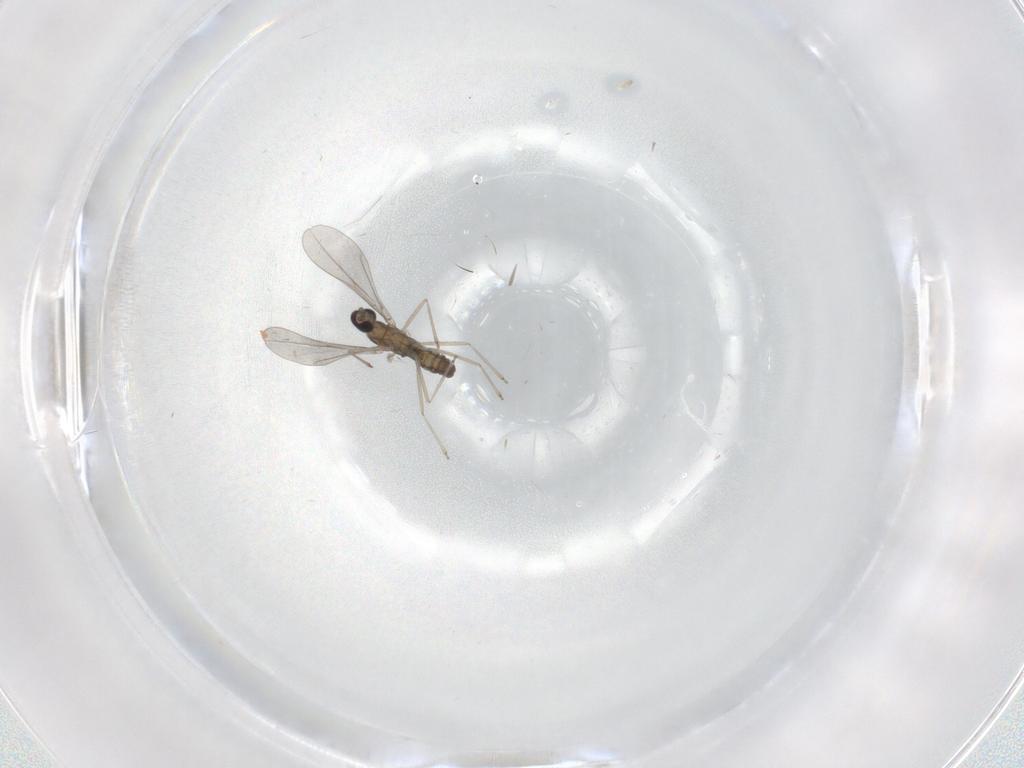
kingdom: Animalia
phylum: Arthropoda
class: Insecta
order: Diptera
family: Cecidomyiidae
